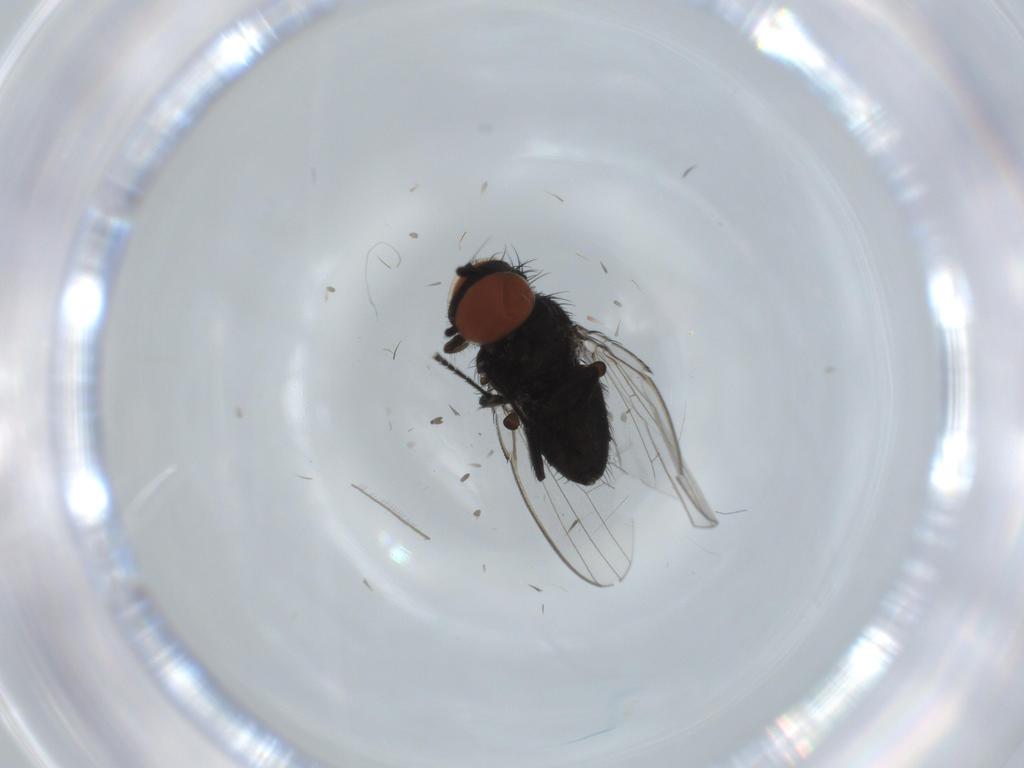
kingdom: Animalia
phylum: Arthropoda
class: Insecta
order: Diptera
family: Milichiidae
